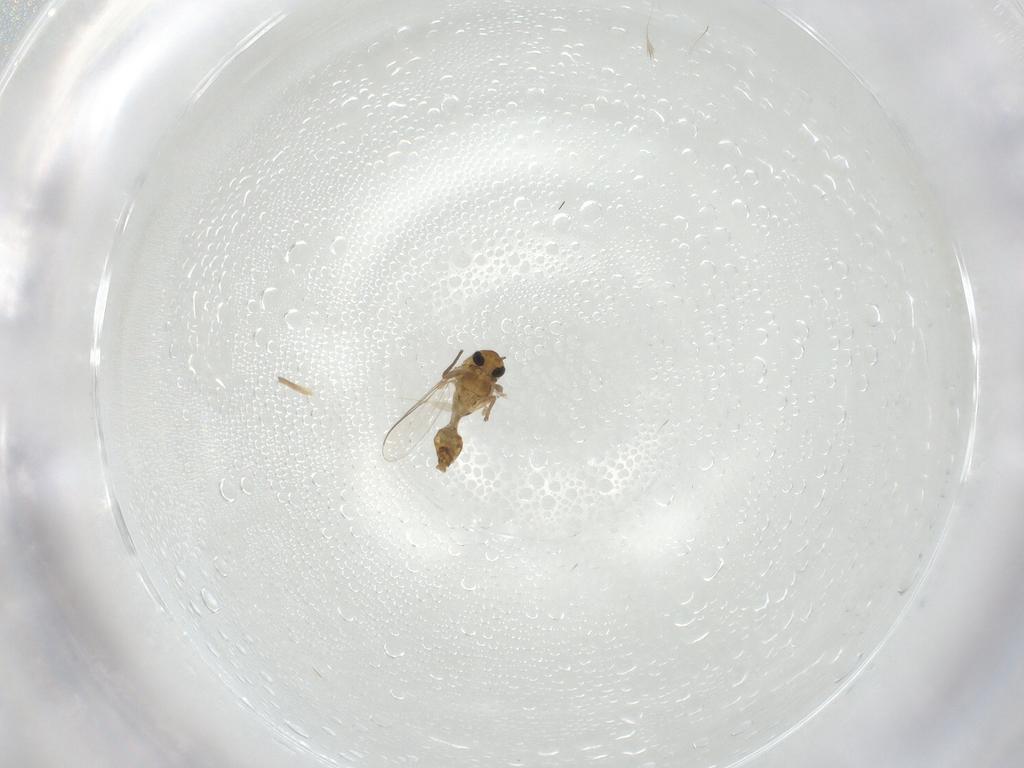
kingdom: Animalia
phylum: Arthropoda
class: Insecta
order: Diptera
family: Chironomidae
